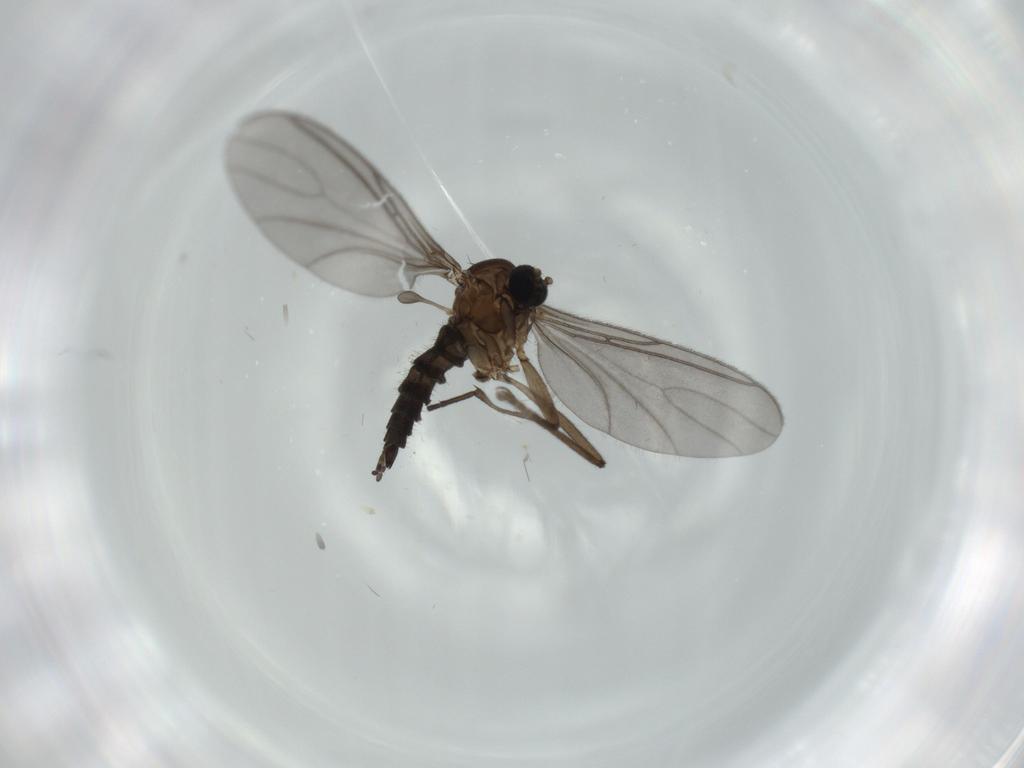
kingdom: Animalia
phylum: Arthropoda
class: Insecta
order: Diptera
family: Sciaridae
